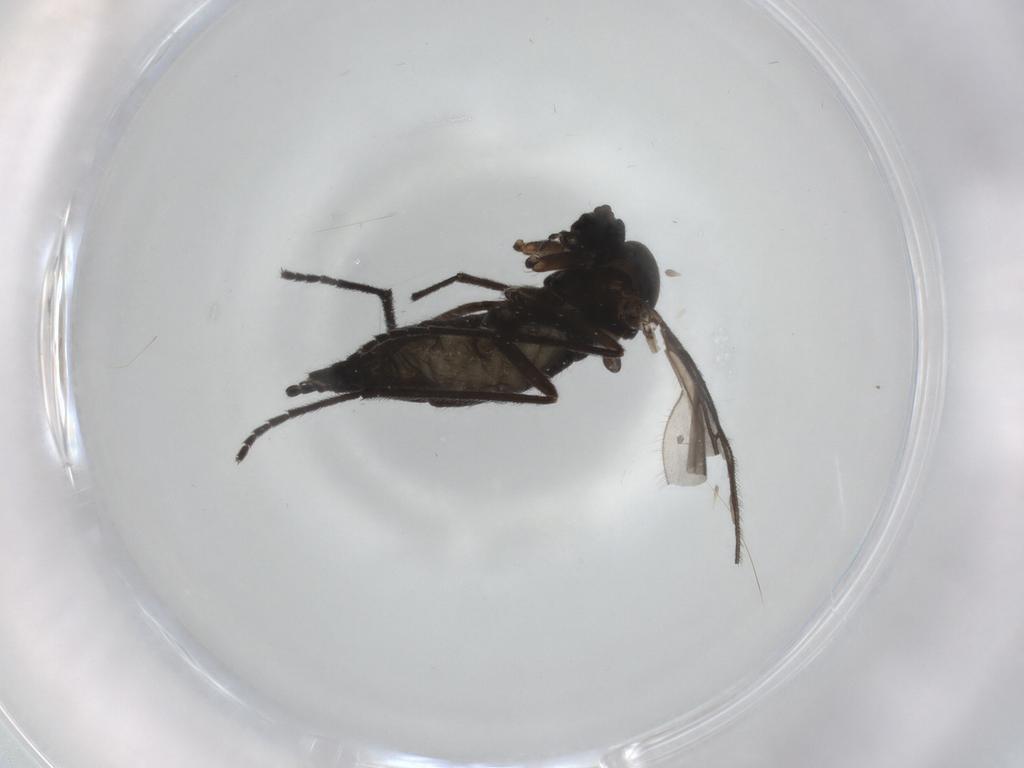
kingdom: Animalia
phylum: Arthropoda
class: Insecta
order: Diptera
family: Sciaridae
